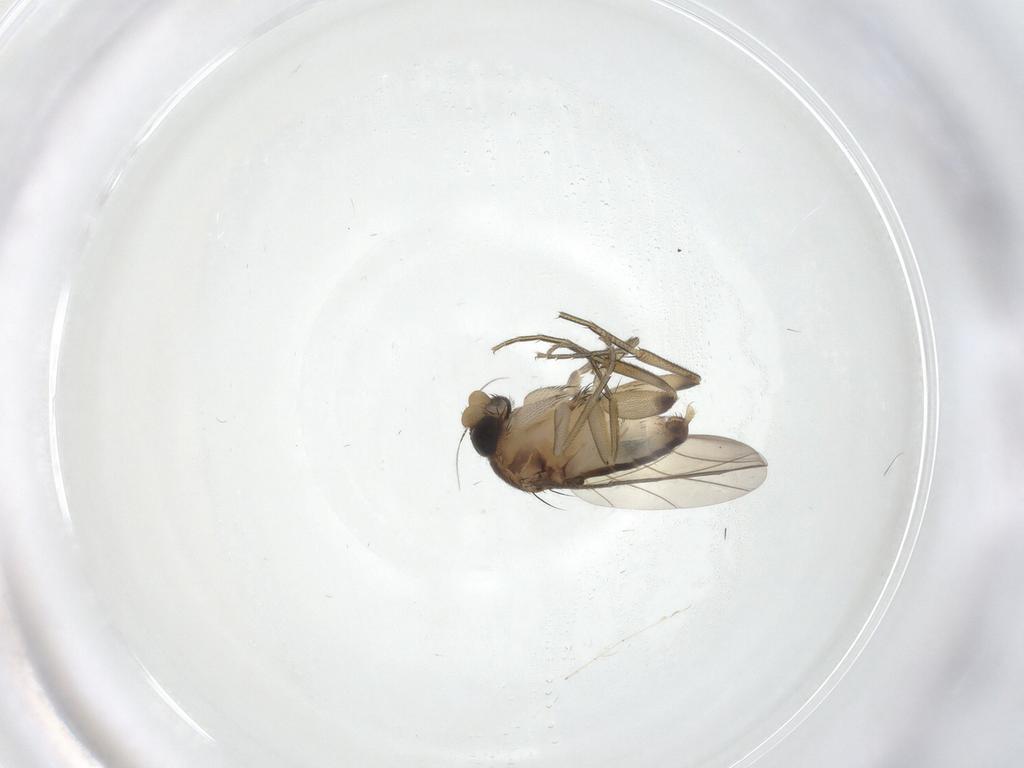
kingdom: Animalia
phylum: Arthropoda
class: Insecta
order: Diptera
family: Phoridae
